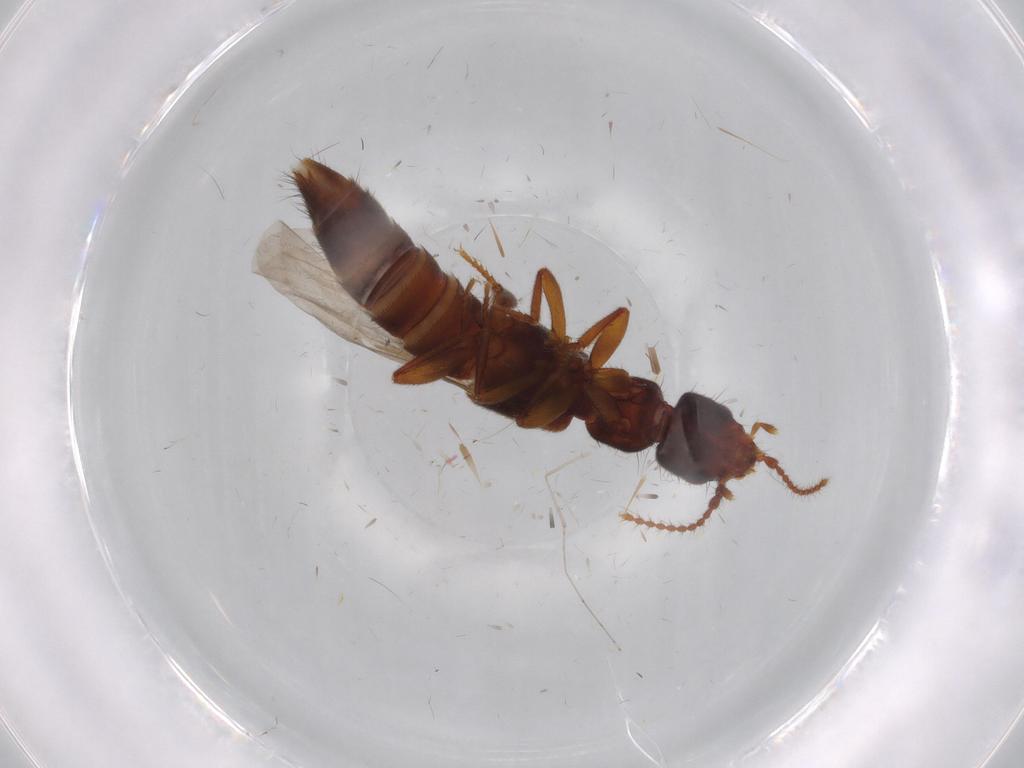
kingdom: Animalia
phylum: Arthropoda
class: Insecta
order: Coleoptera
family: Staphylinidae
